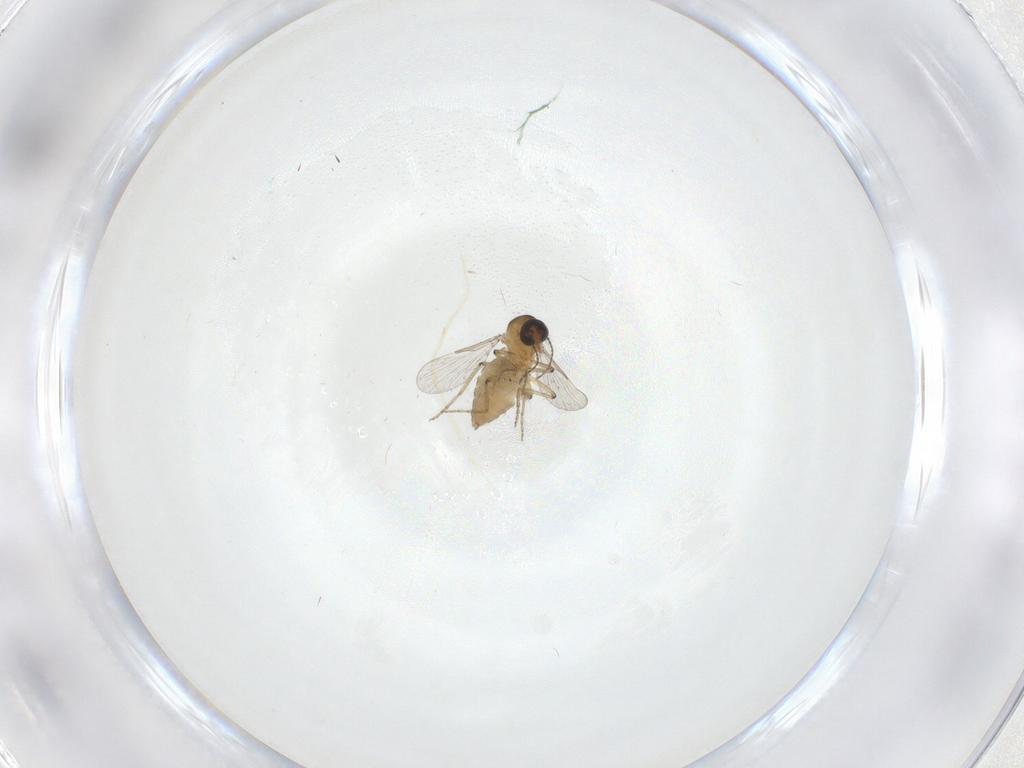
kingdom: Animalia
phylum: Arthropoda
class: Insecta
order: Diptera
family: Ceratopogonidae
